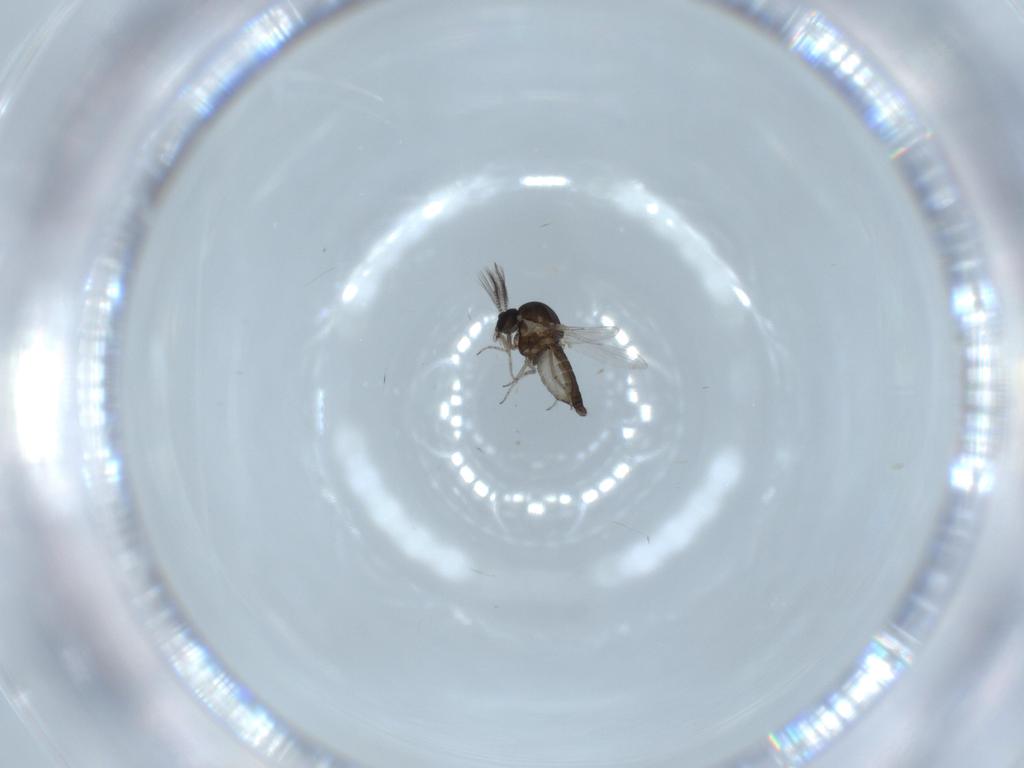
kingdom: Animalia
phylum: Arthropoda
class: Insecta
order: Diptera
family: Ceratopogonidae
